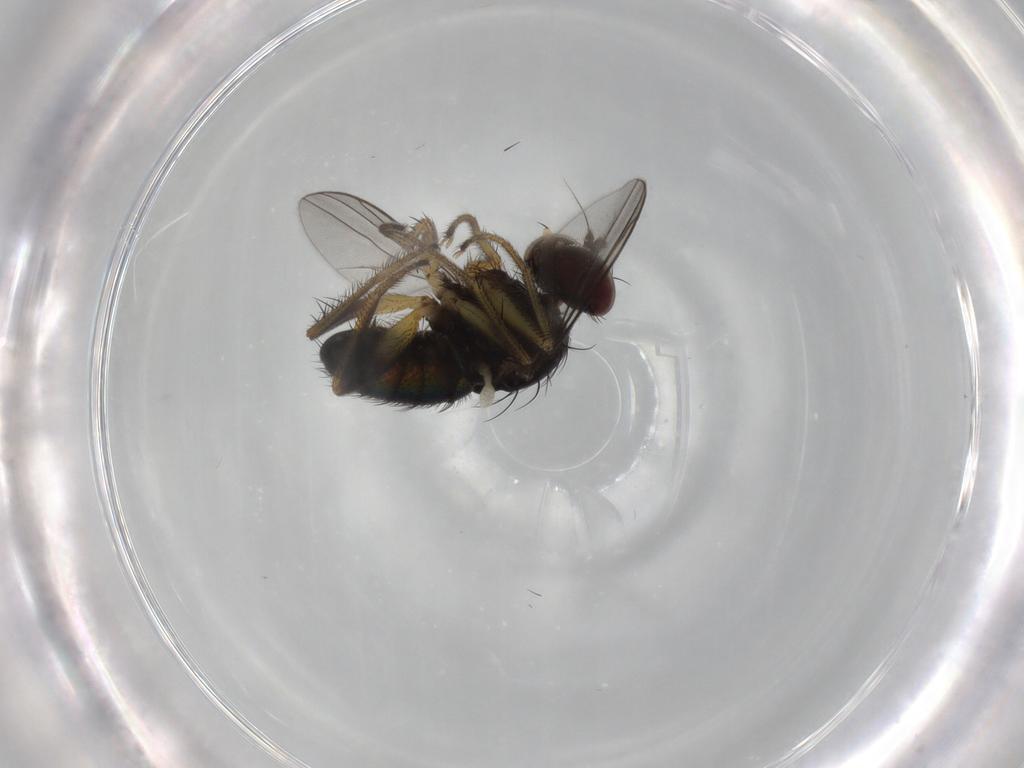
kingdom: Animalia
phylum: Arthropoda
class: Insecta
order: Diptera
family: Dolichopodidae
